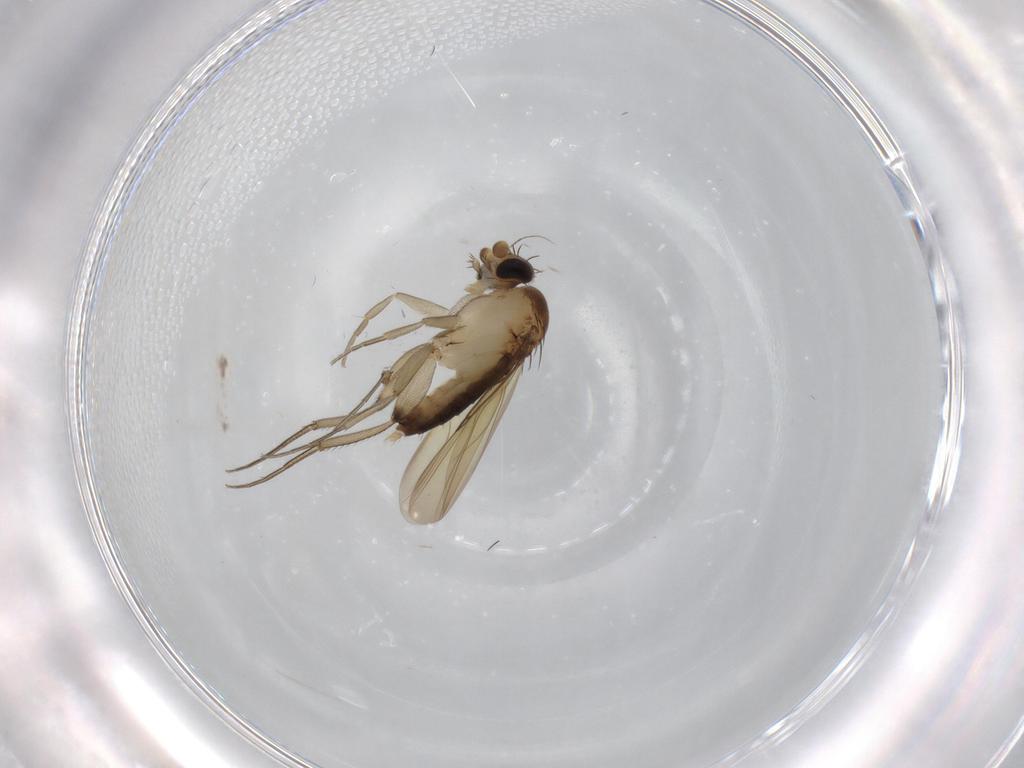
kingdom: Animalia
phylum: Arthropoda
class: Insecta
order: Diptera
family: Phoridae
